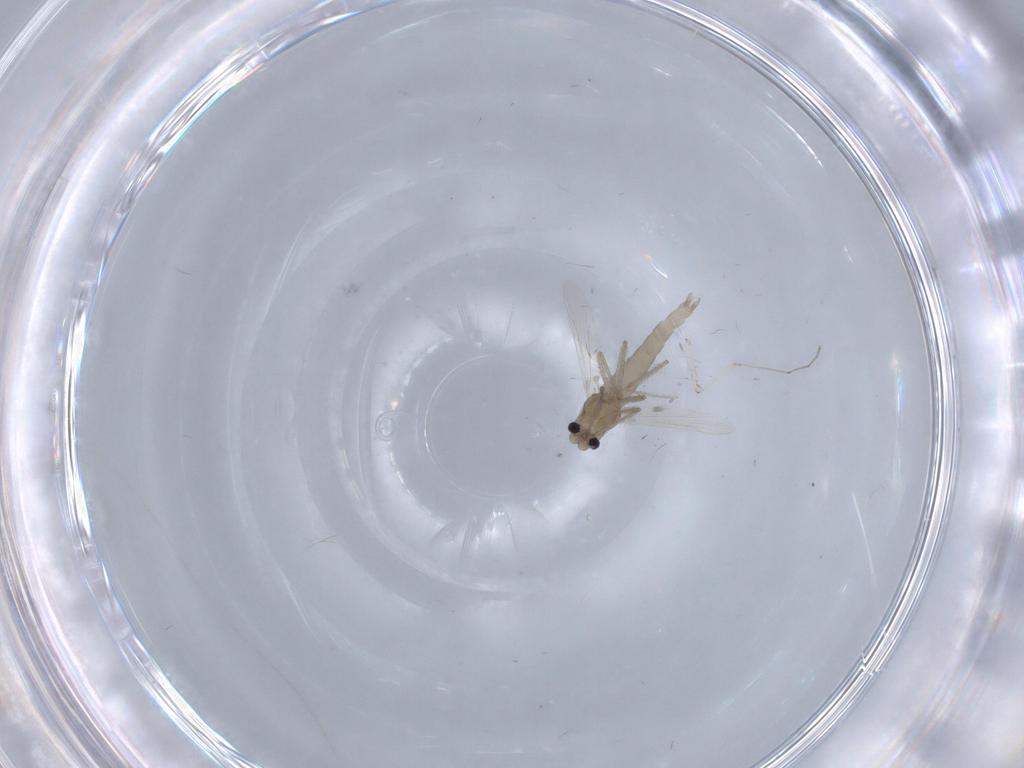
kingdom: Animalia
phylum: Arthropoda
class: Insecta
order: Diptera
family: Chironomidae
